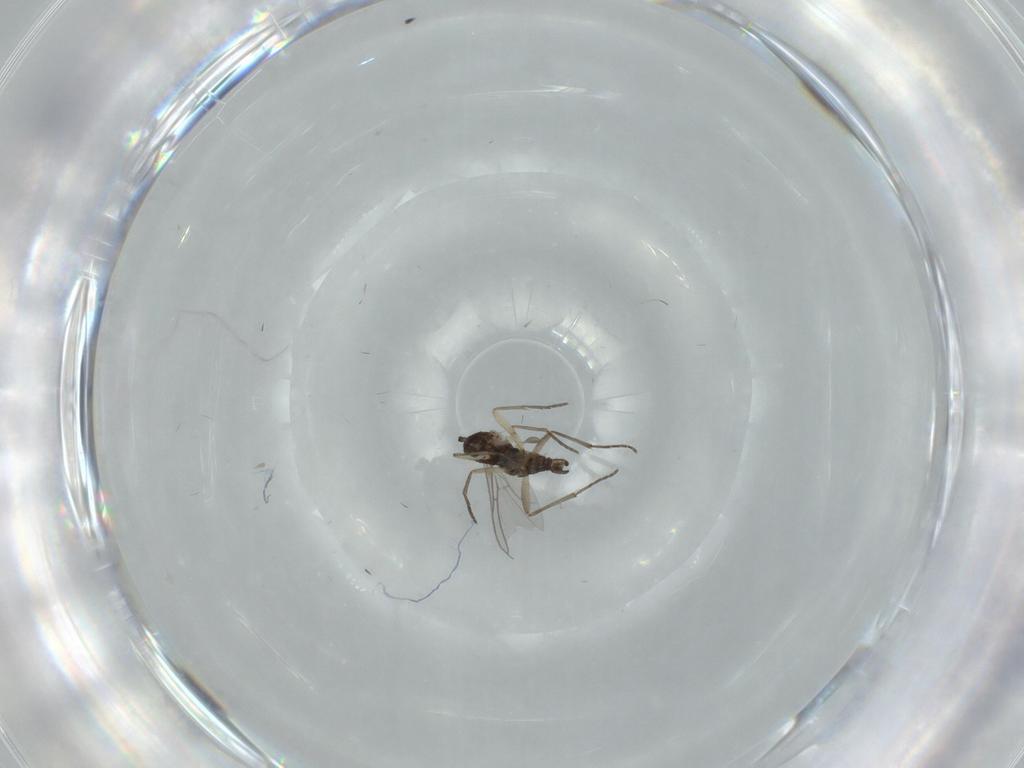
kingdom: Animalia
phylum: Arthropoda
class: Insecta
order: Diptera
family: Sciaridae
